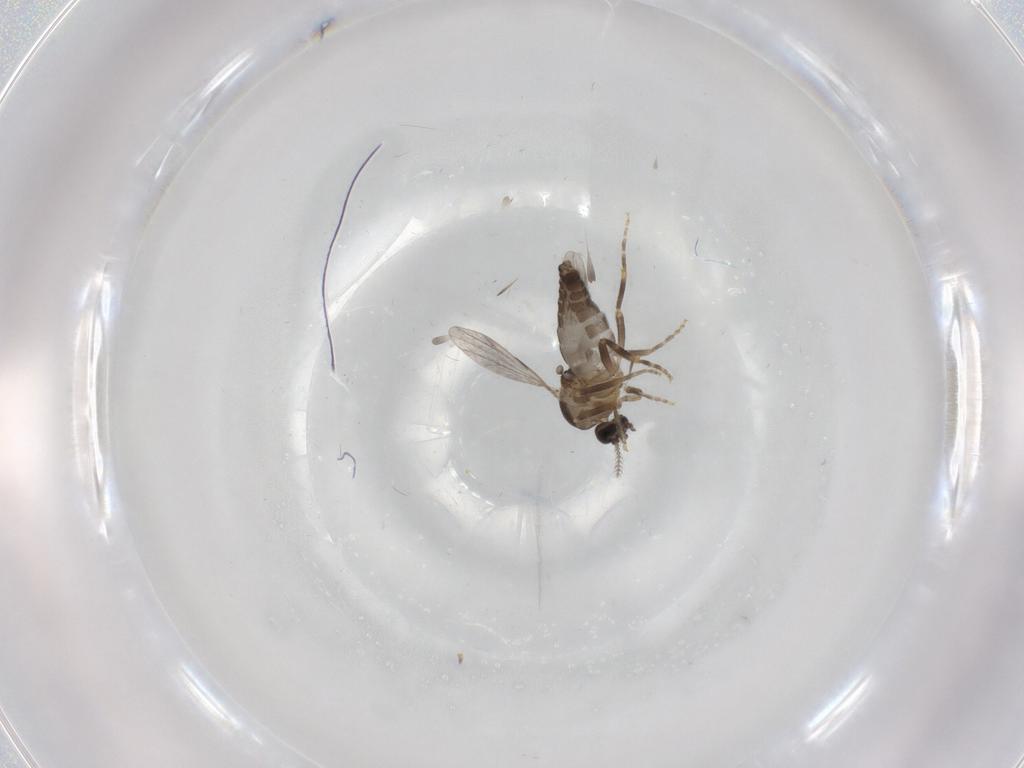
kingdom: Animalia
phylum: Arthropoda
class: Insecta
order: Diptera
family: Ceratopogonidae
